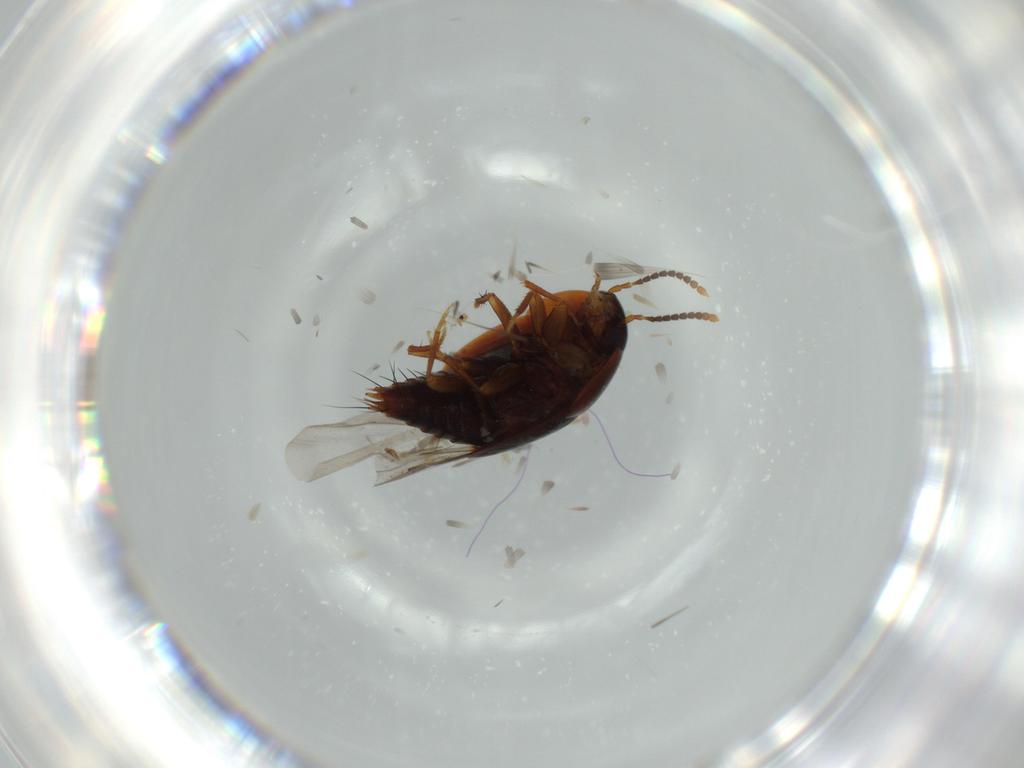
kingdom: Animalia
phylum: Arthropoda
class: Insecta
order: Coleoptera
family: Staphylinidae
